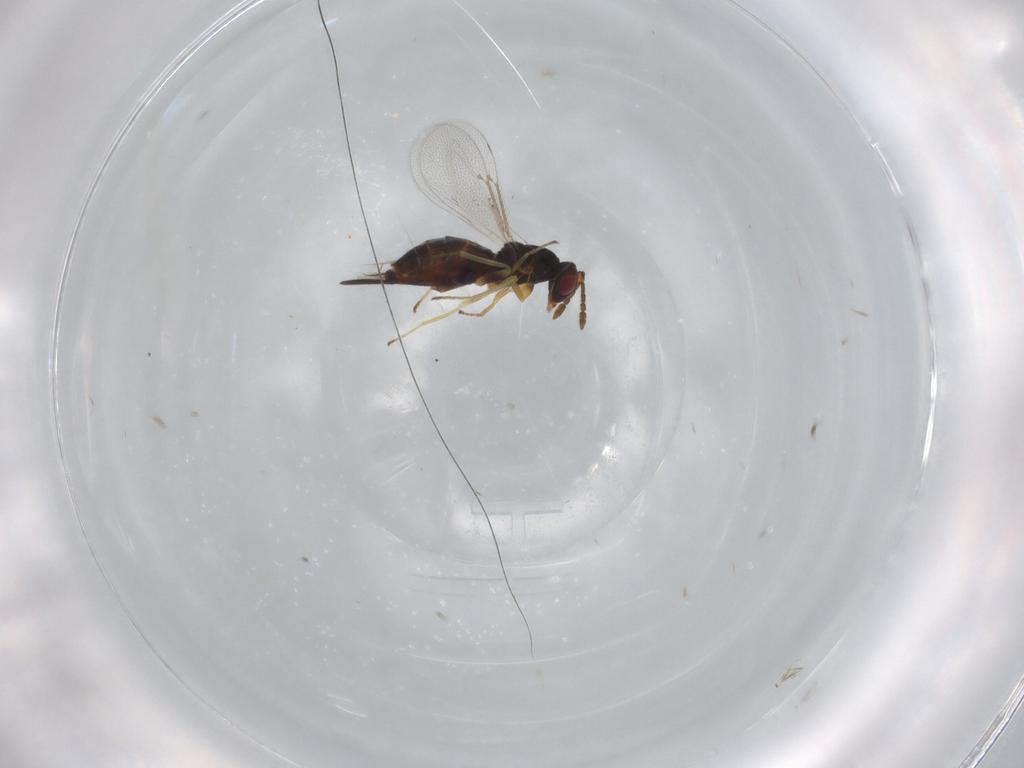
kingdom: Animalia
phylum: Arthropoda
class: Insecta
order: Hymenoptera
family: Eulophidae
